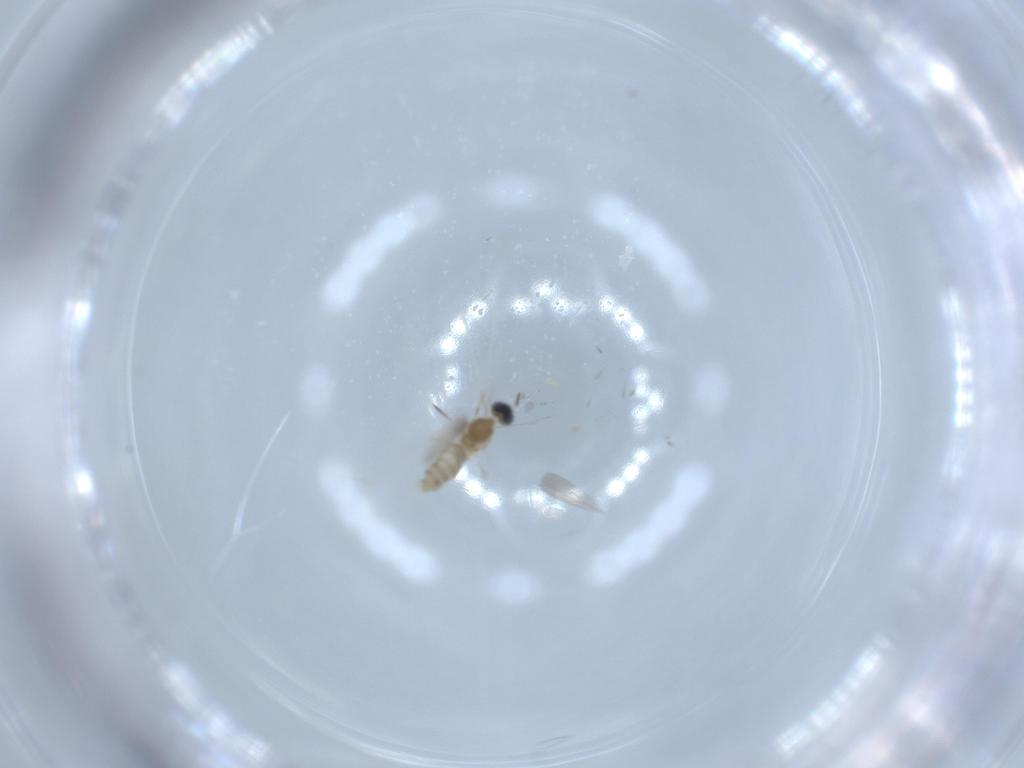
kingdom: Animalia
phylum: Arthropoda
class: Insecta
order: Diptera
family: Cecidomyiidae
